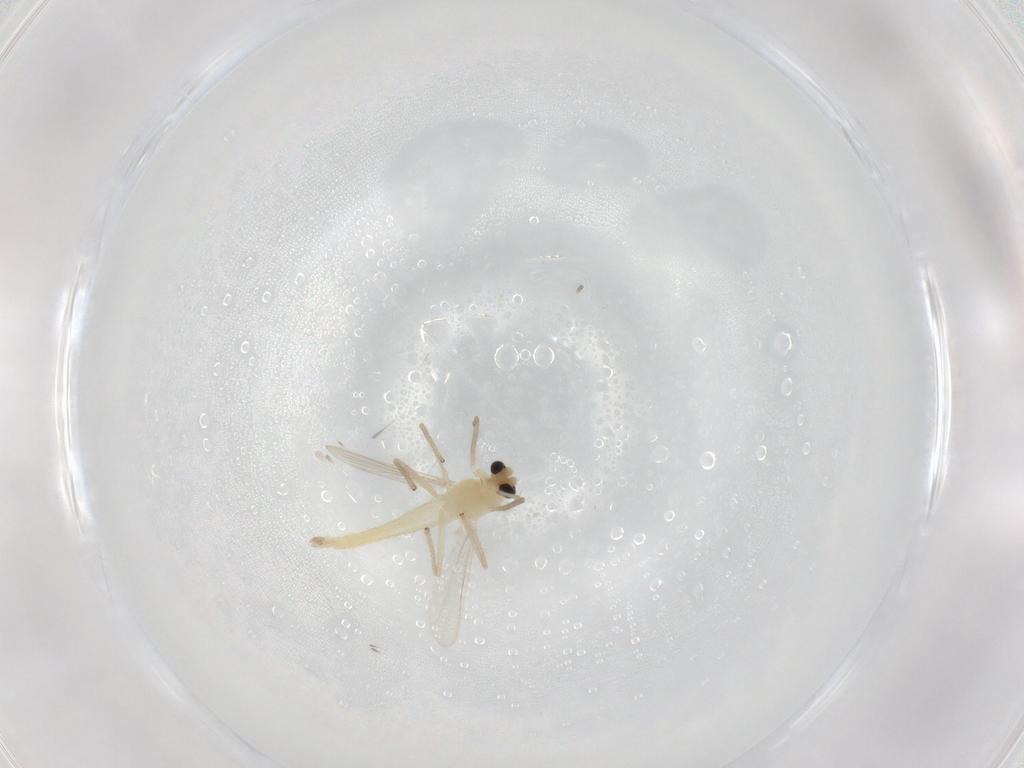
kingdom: Animalia
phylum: Arthropoda
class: Insecta
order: Diptera
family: Chironomidae
